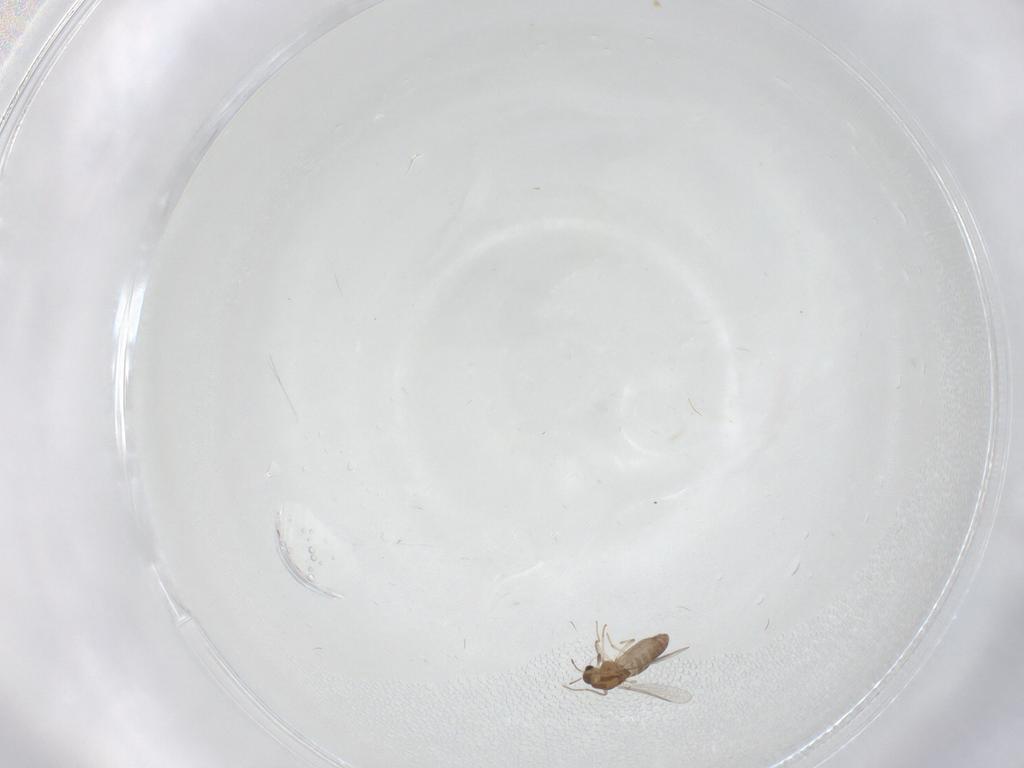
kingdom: Animalia
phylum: Arthropoda
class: Insecta
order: Diptera
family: Chironomidae
